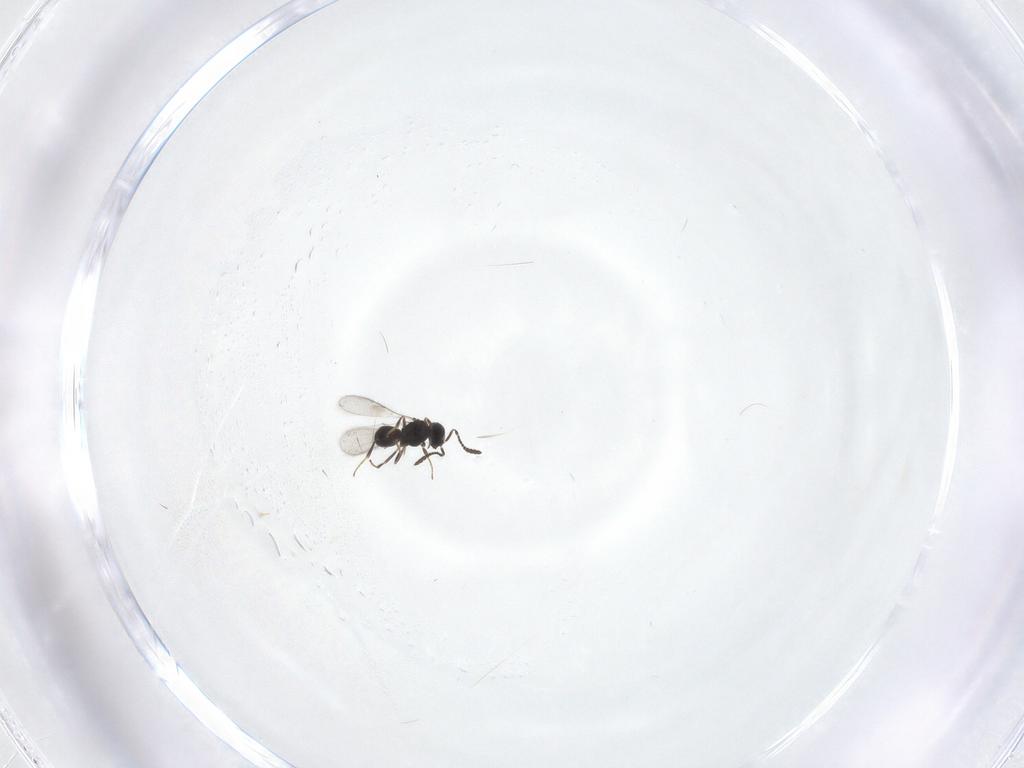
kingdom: Animalia
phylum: Arthropoda
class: Insecta
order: Hymenoptera
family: Scelionidae
